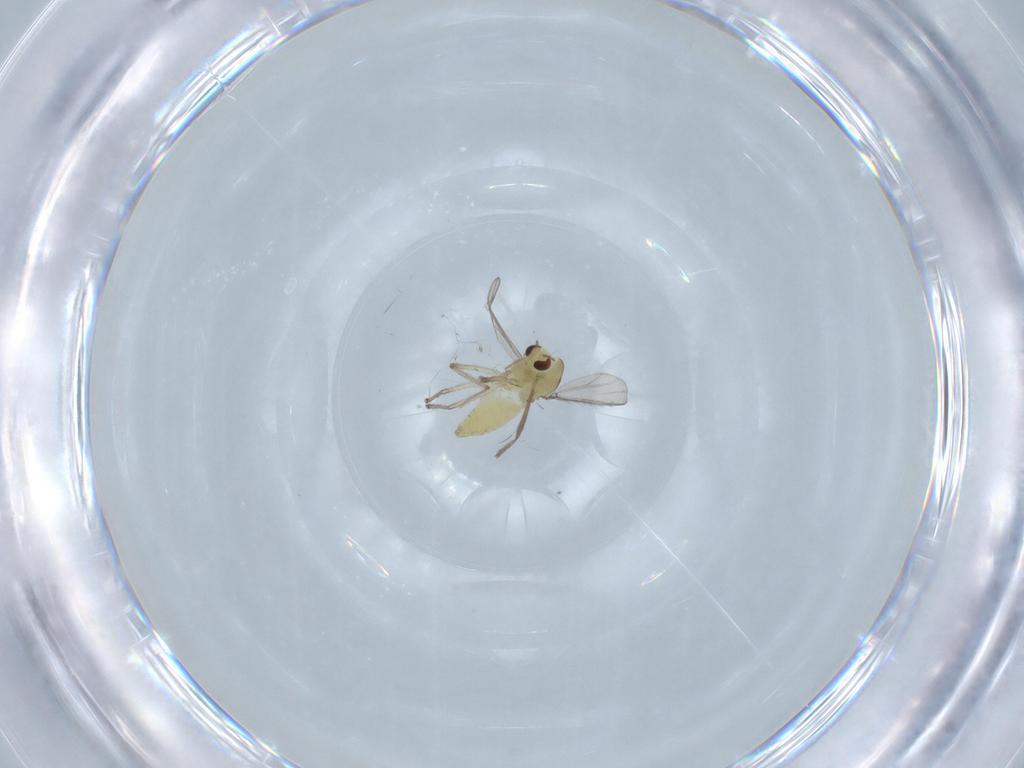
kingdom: Animalia
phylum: Arthropoda
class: Insecta
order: Diptera
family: Chironomidae
